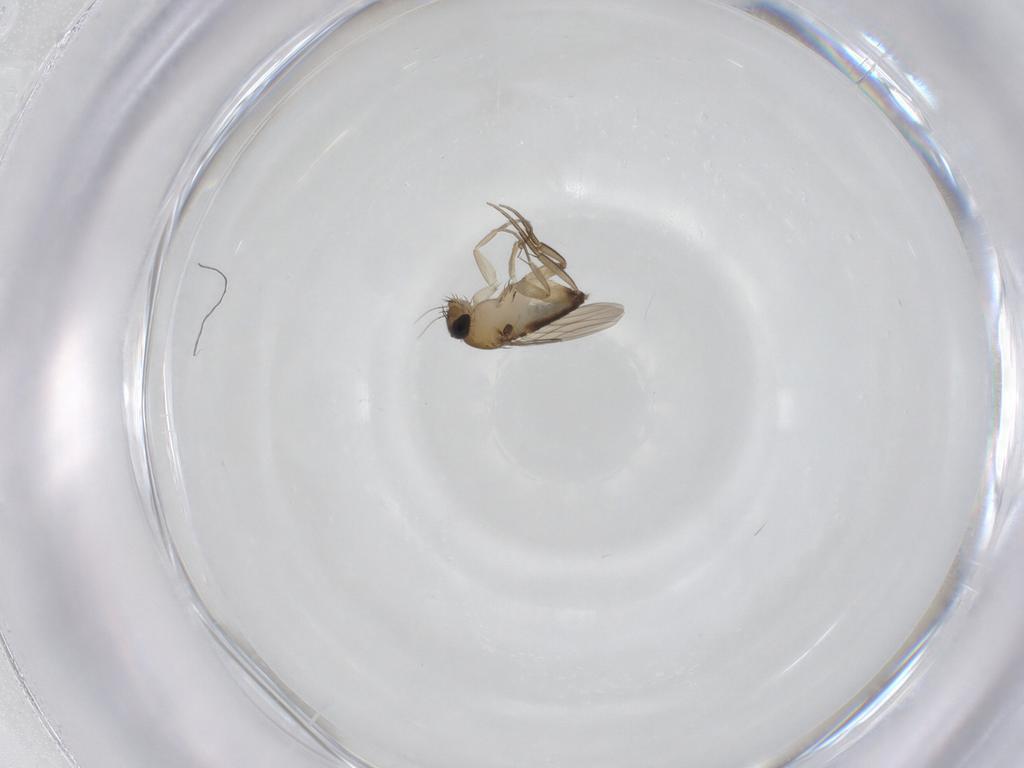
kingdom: Animalia
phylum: Arthropoda
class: Insecta
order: Diptera
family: Phoridae
